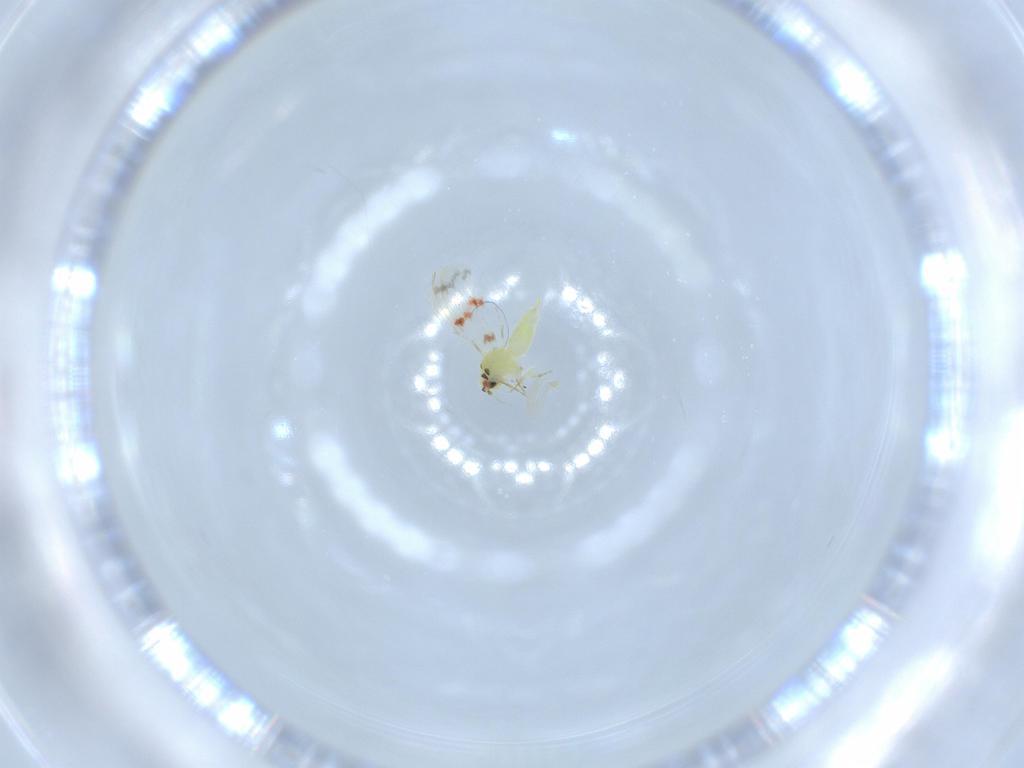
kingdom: Animalia
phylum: Arthropoda
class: Insecta
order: Hemiptera
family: Aleyrodidae
